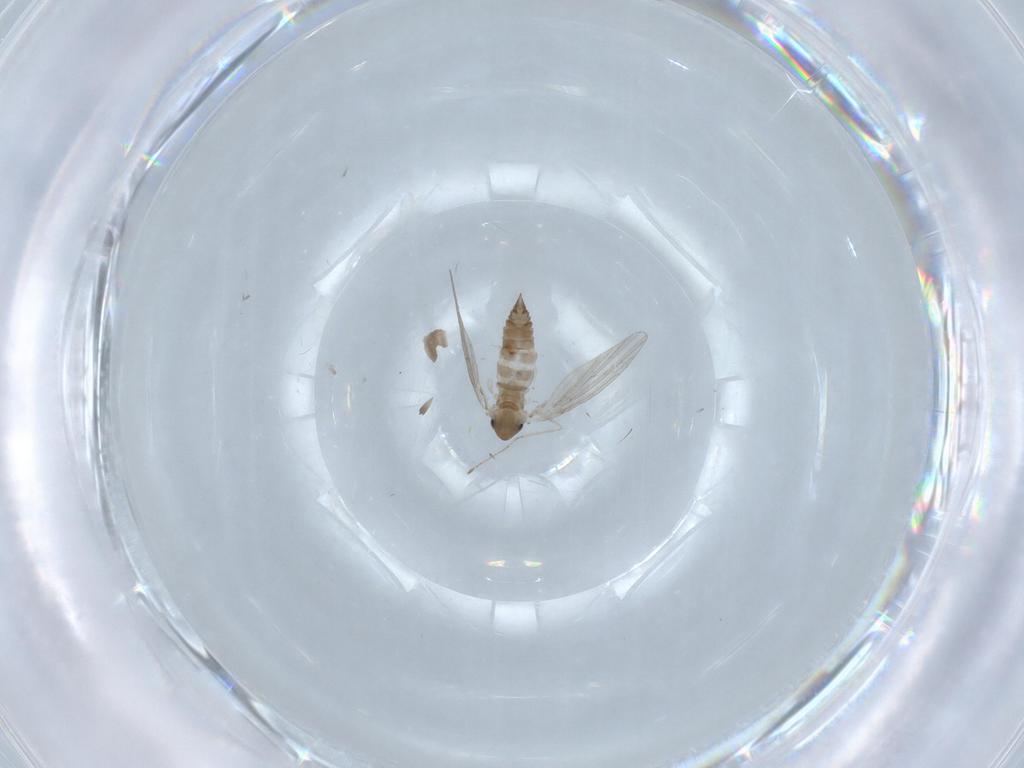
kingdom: Animalia
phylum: Arthropoda
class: Insecta
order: Diptera
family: Psychodidae
